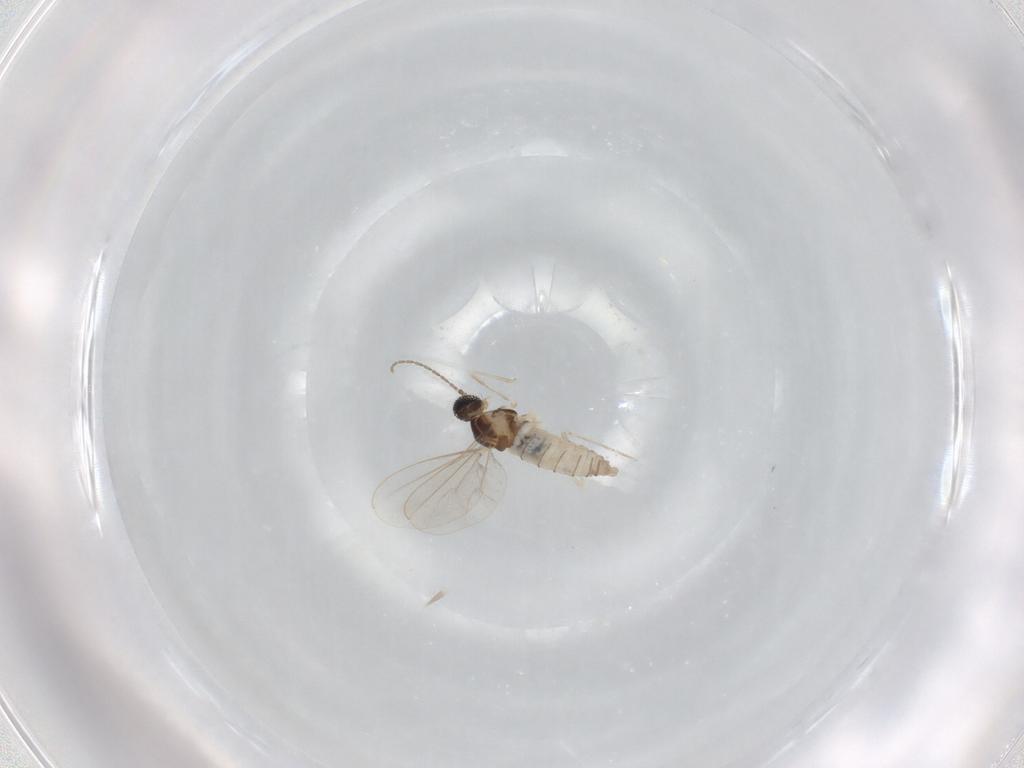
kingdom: Animalia
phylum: Arthropoda
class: Insecta
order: Diptera
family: Cecidomyiidae
